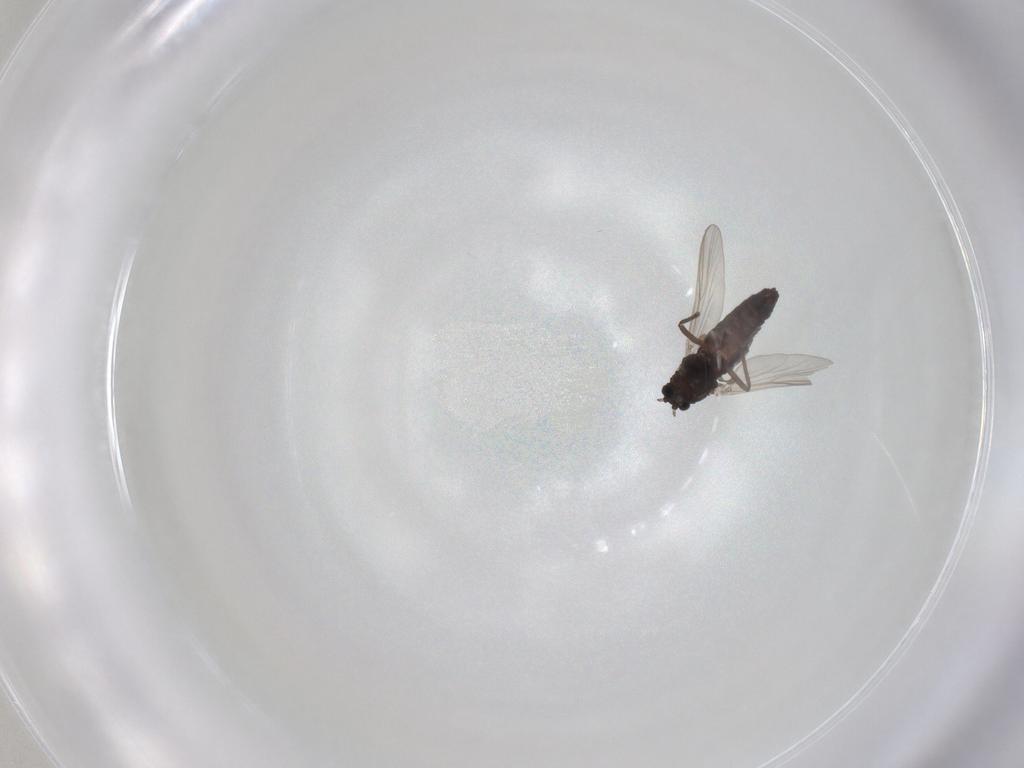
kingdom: Animalia
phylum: Arthropoda
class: Insecta
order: Diptera
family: Chironomidae
